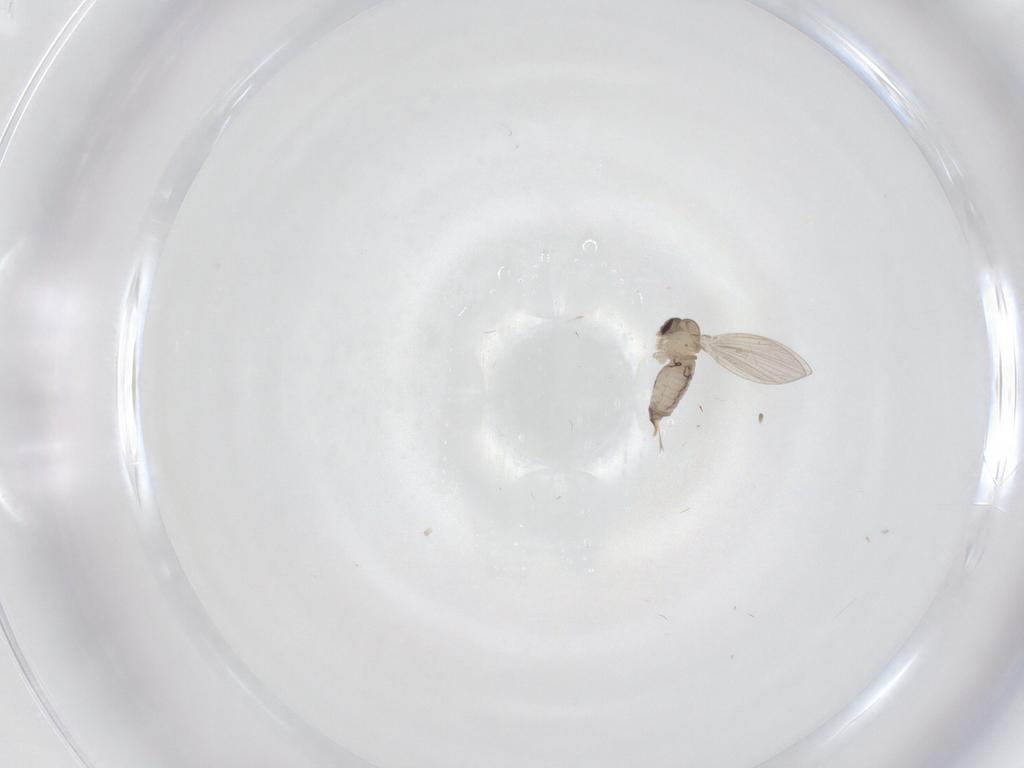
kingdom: Animalia
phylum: Arthropoda
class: Insecta
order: Diptera
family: Psychodidae
